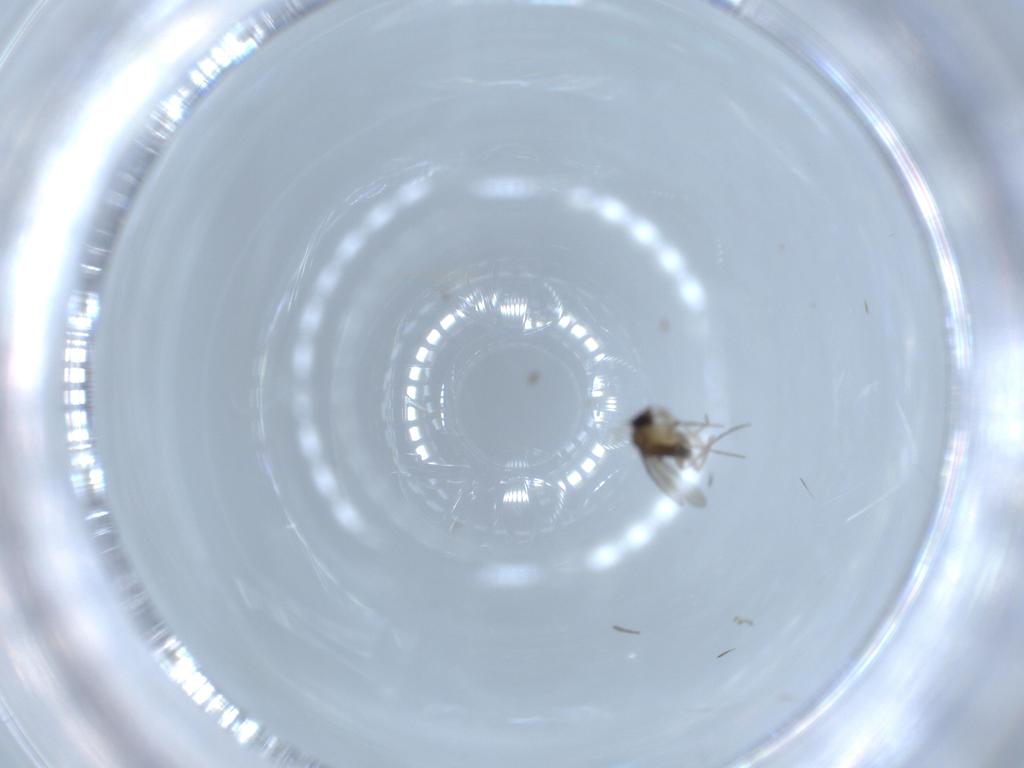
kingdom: Animalia
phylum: Arthropoda
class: Insecta
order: Diptera
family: Phoridae
